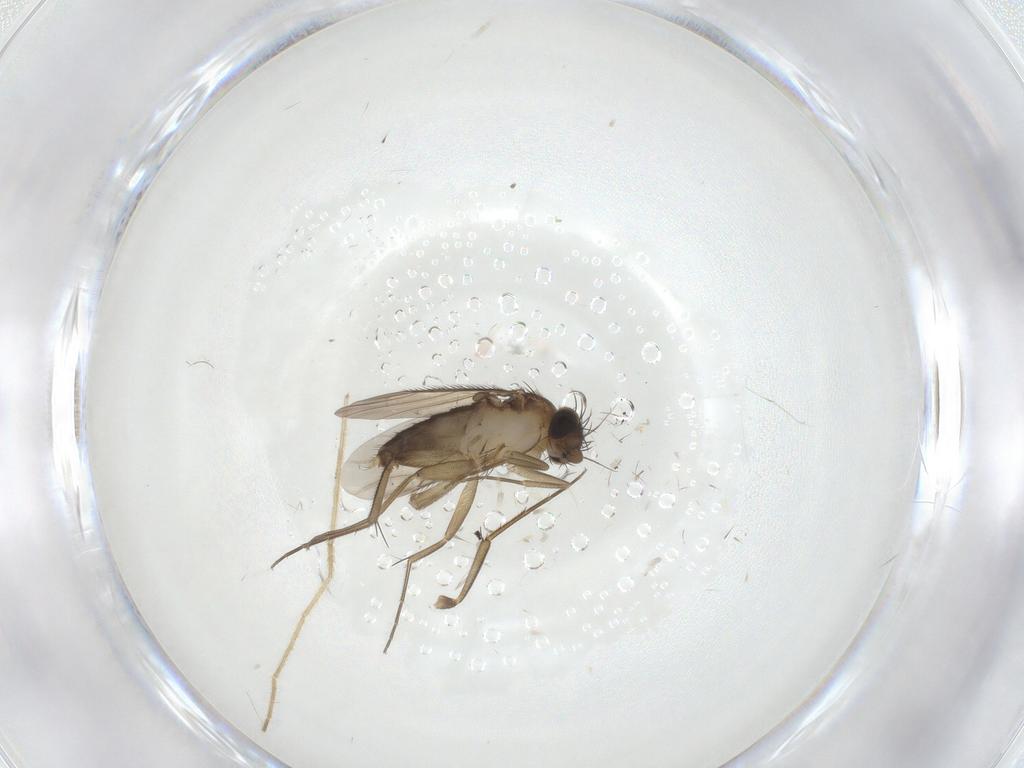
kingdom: Animalia
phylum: Arthropoda
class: Insecta
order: Diptera
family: Phoridae
